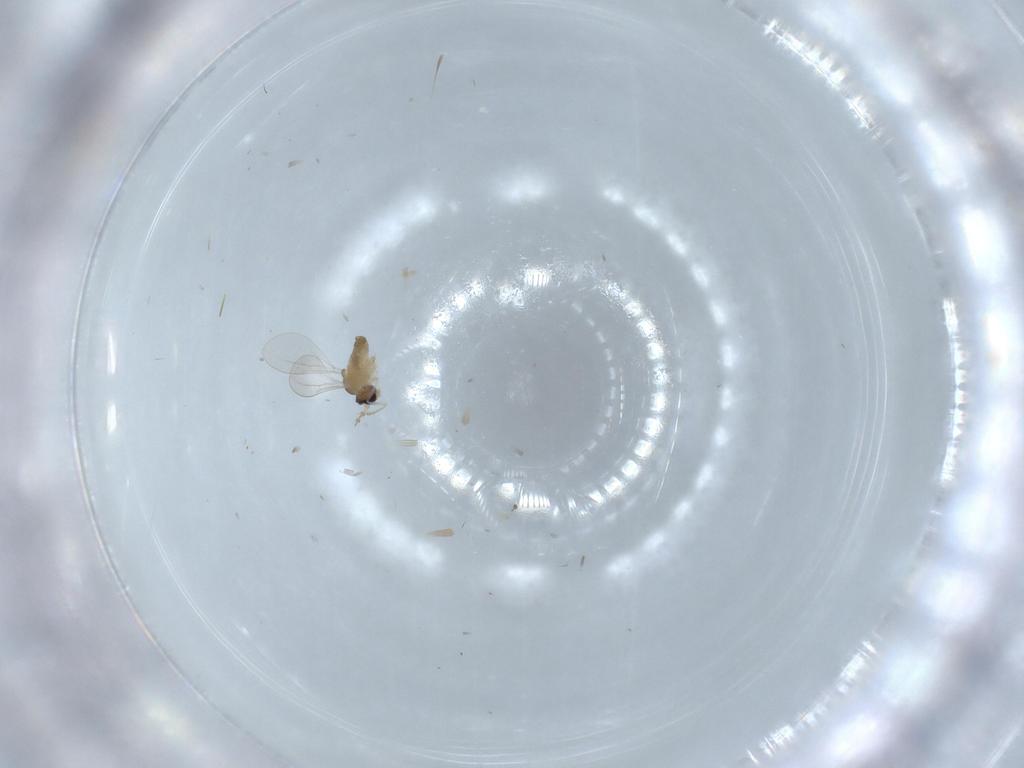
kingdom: Animalia
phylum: Arthropoda
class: Insecta
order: Diptera
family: Cecidomyiidae
